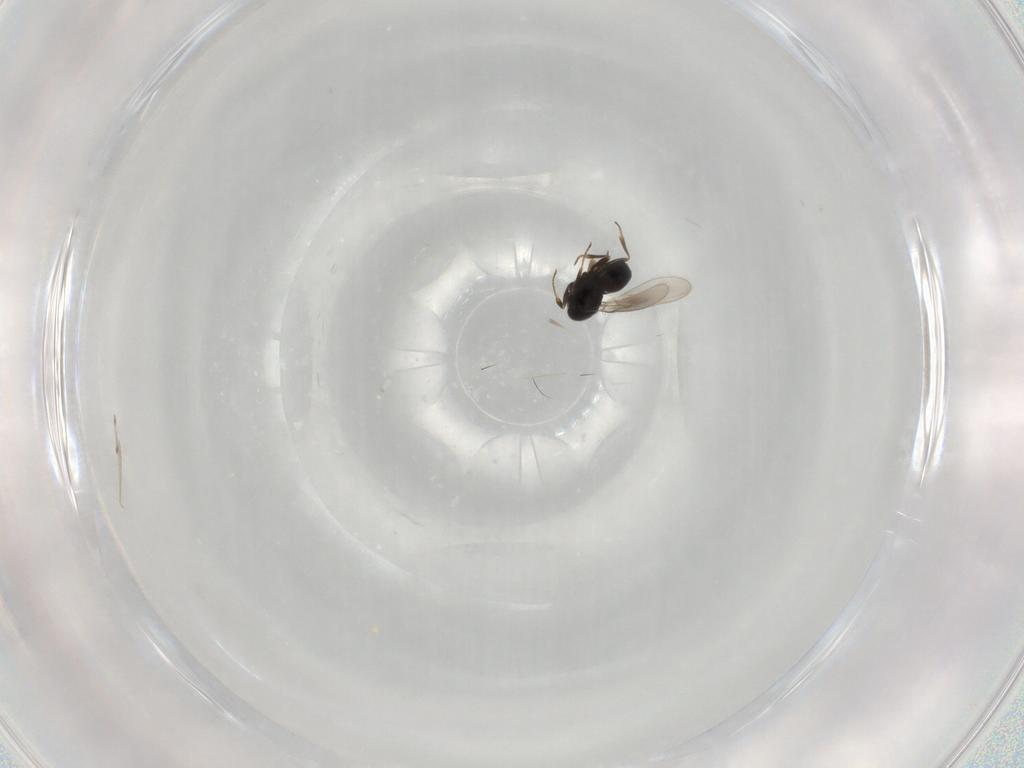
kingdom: Animalia
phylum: Arthropoda
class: Insecta
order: Hymenoptera
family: Scelionidae
